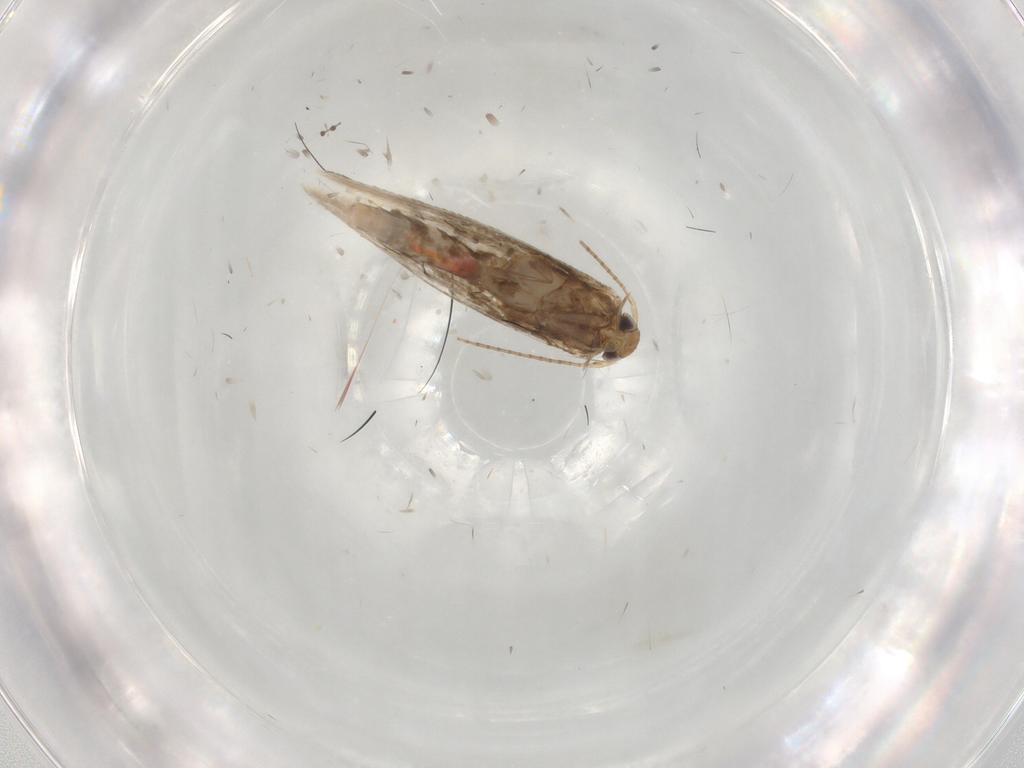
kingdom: Animalia
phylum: Arthropoda
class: Insecta
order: Lepidoptera
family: Gracillariidae
